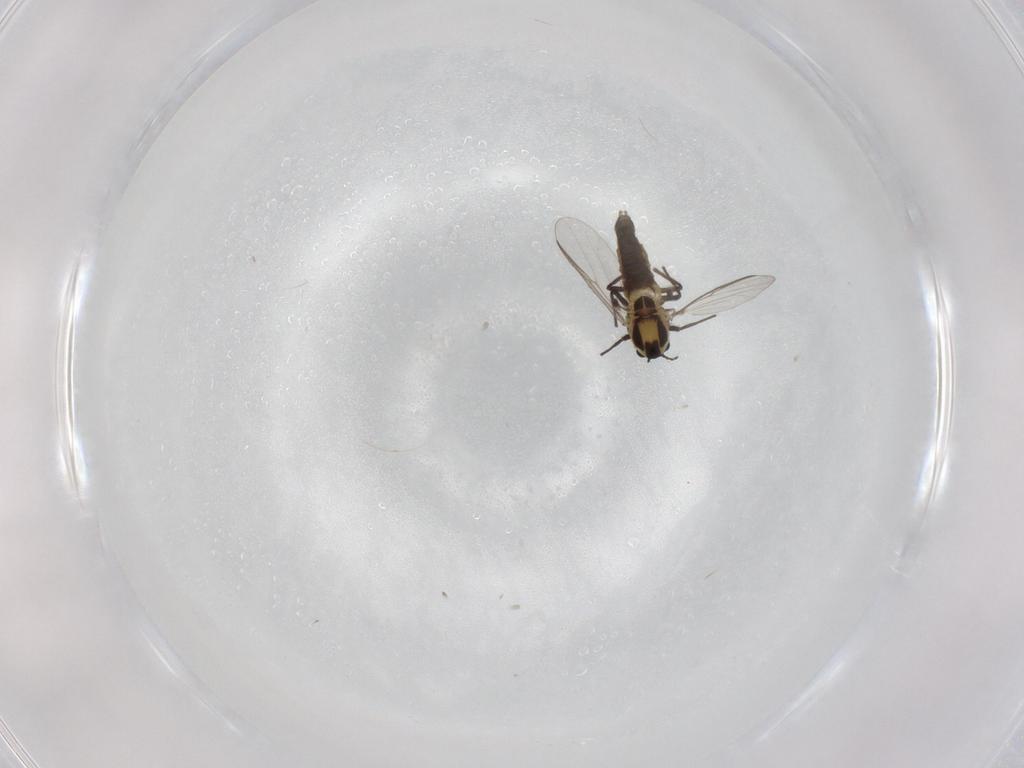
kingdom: Animalia
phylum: Arthropoda
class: Insecta
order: Diptera
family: Chironomidae
